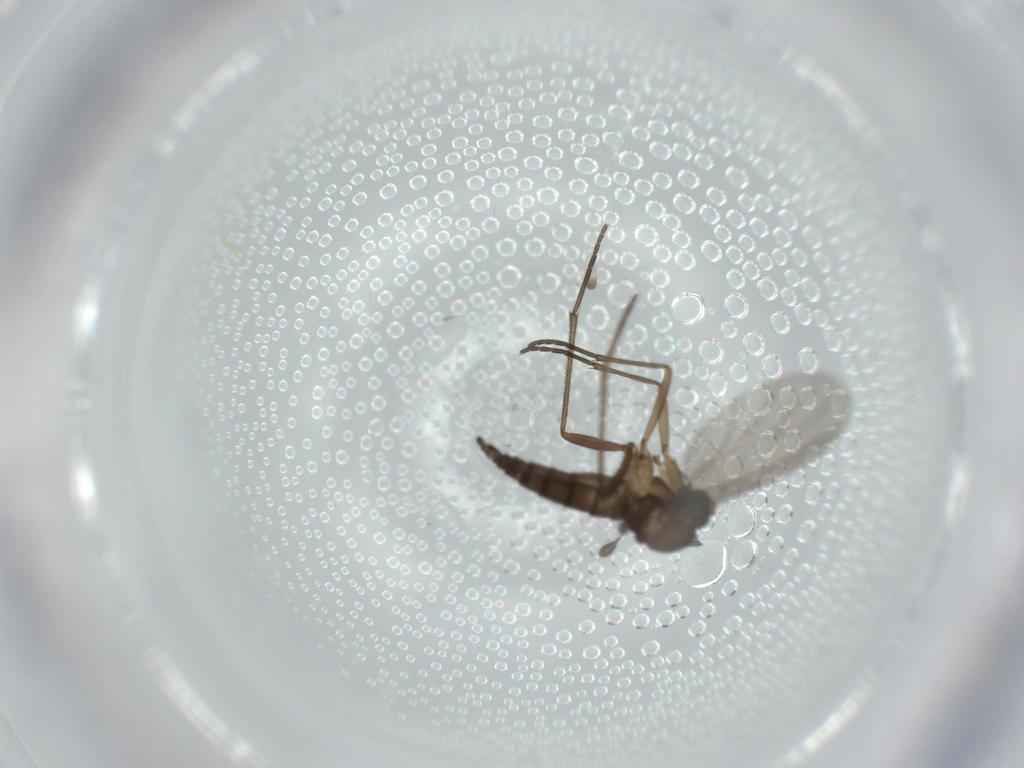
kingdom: Animalia
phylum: Arthropoda
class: Insecta
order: Diptera
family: Sciaridae
